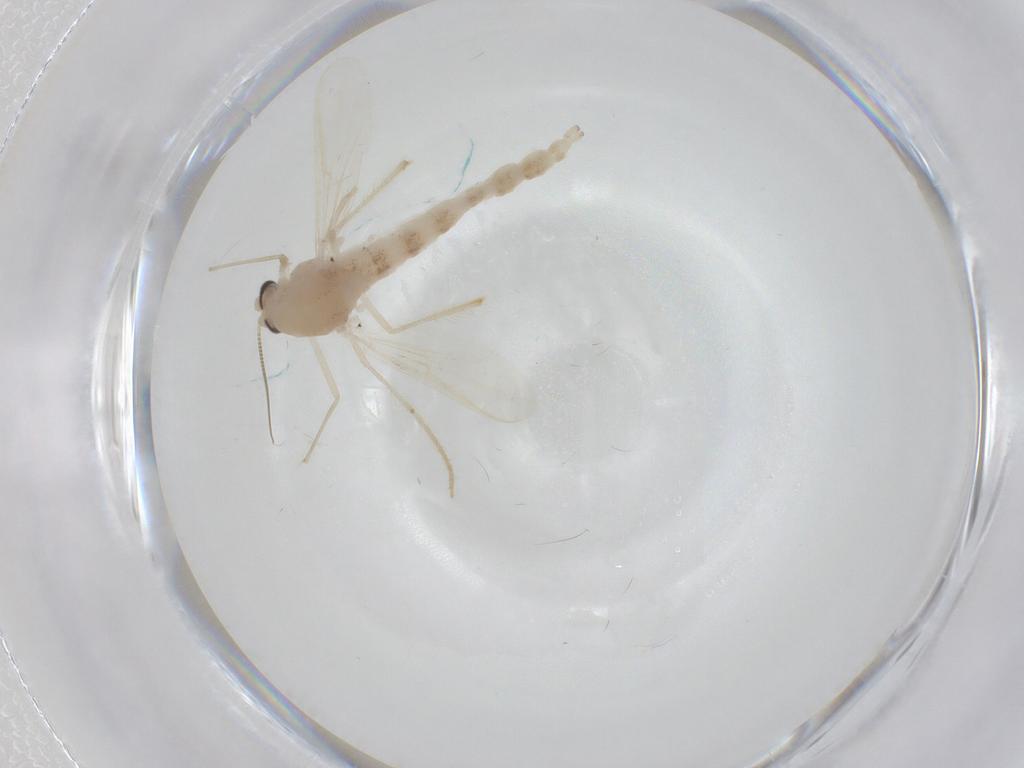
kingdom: Animalia
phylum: Arthropoda
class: Insecta
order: Diptera
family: Chironomidae
